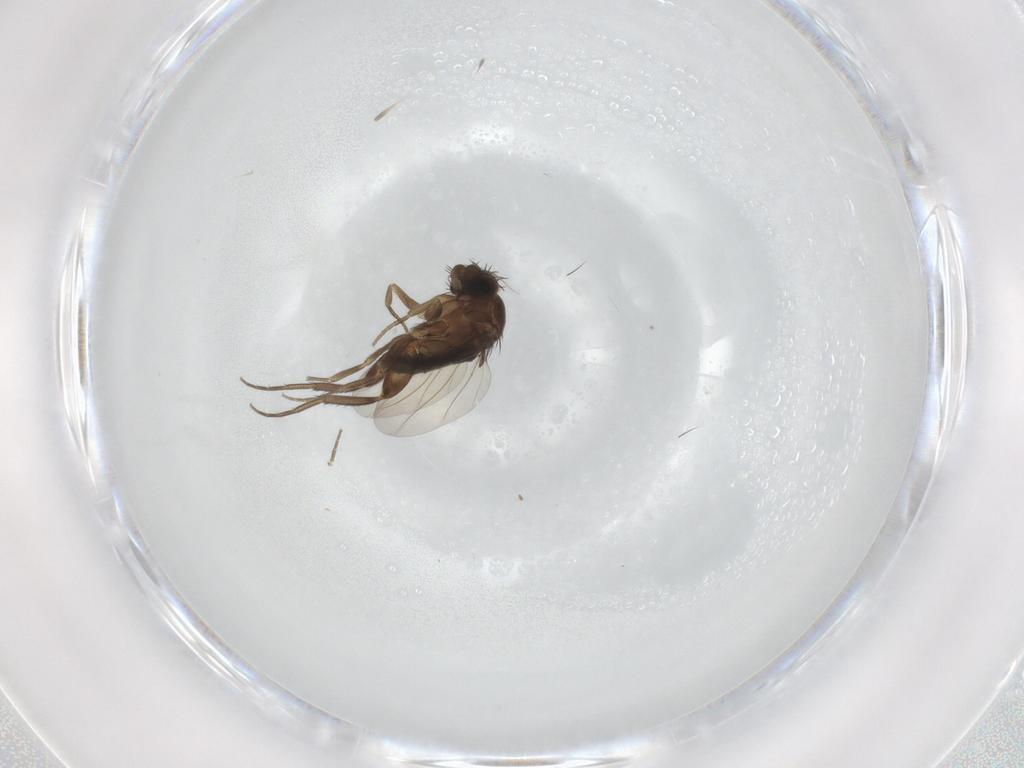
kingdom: Animalia
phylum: Arthropoda
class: Insecta
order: Diptera
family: Phoridae
